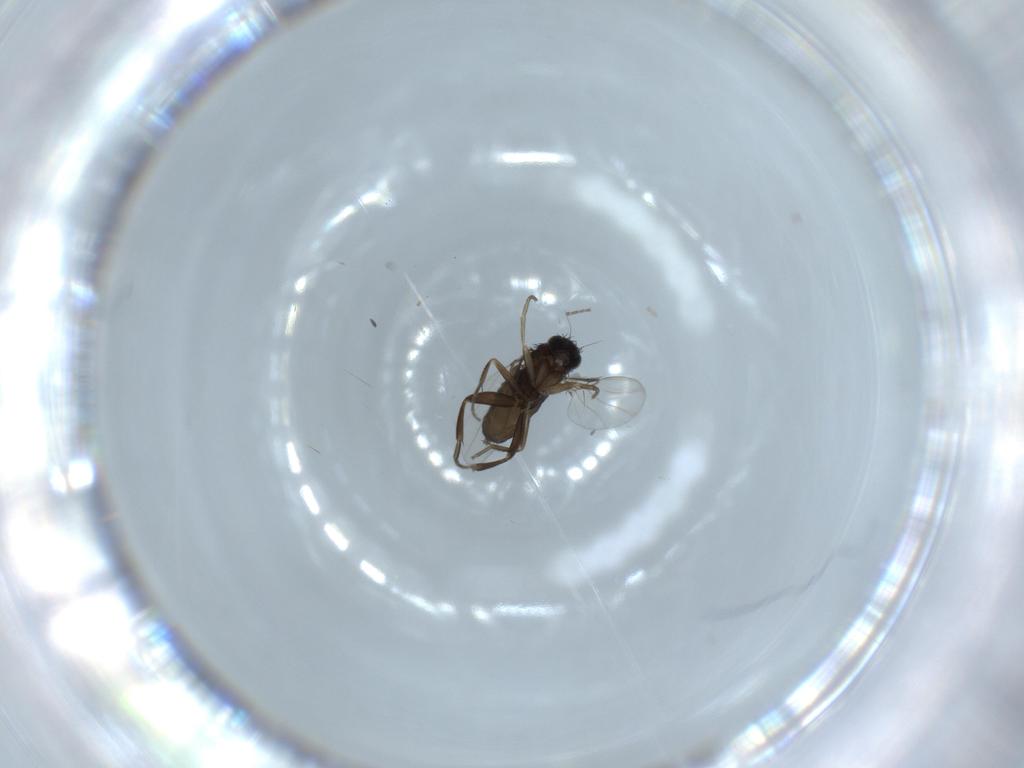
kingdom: Animalia
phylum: Arthropoda
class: Insecta
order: Diptera
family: Phoridae
